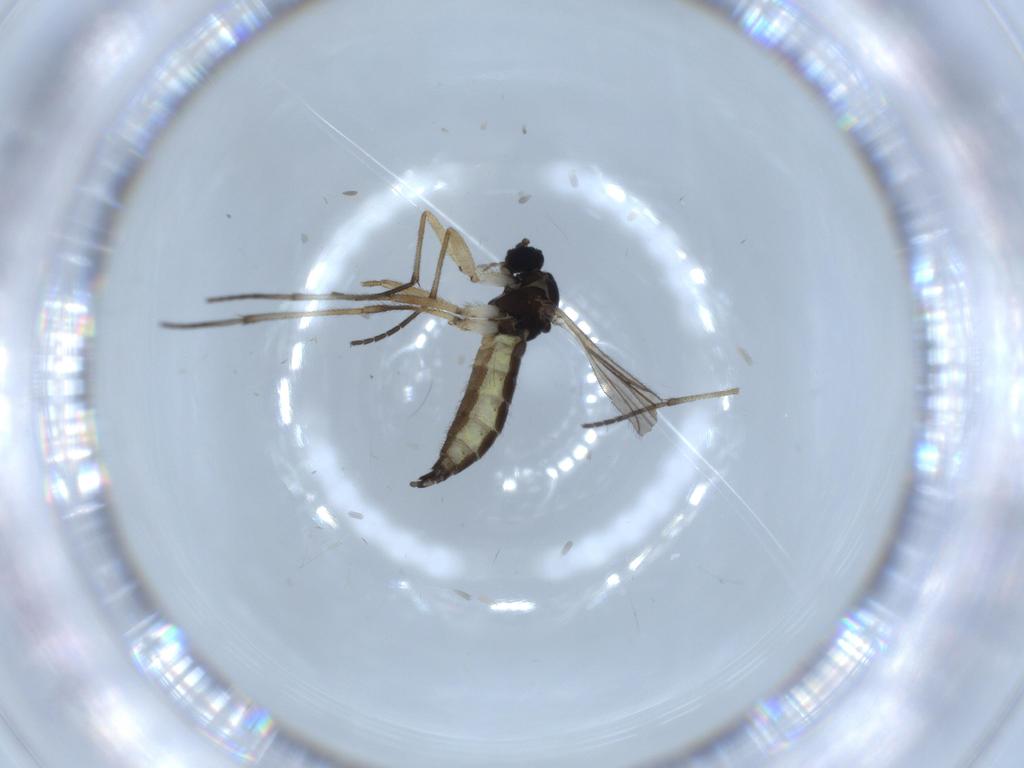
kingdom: Animalia
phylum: Arthropoda
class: Insecta
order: Diptera
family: Sciaridae
